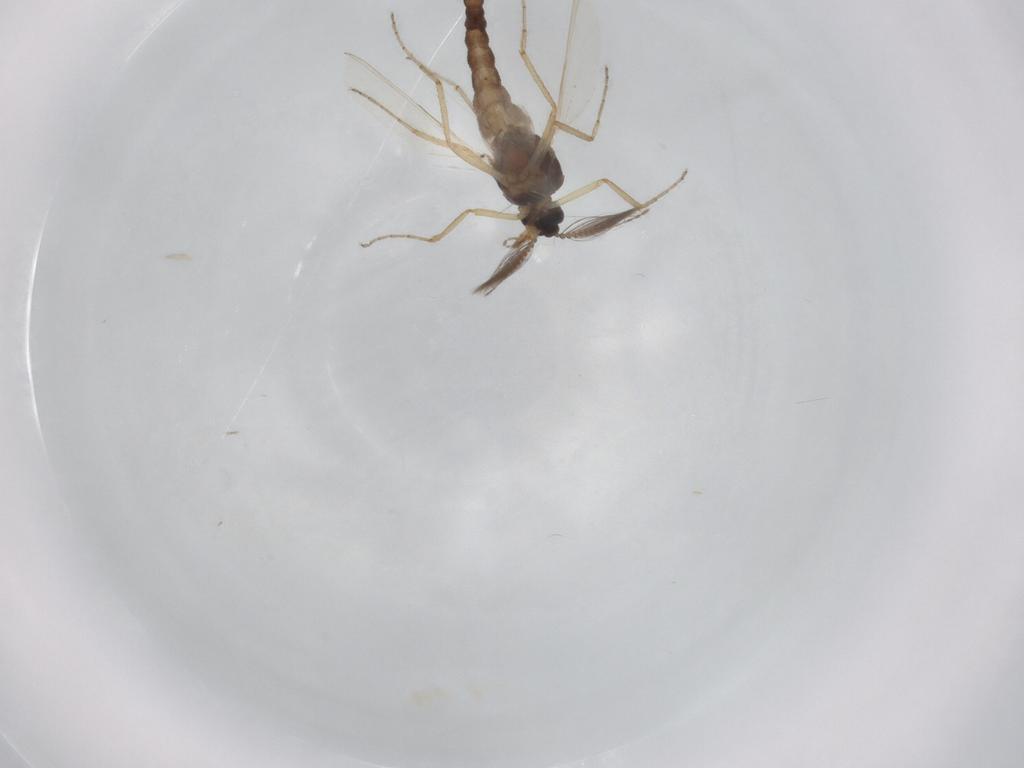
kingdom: Animalia
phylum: Arthropoda
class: Insecta
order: Diptera
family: Ceratopogonidae
